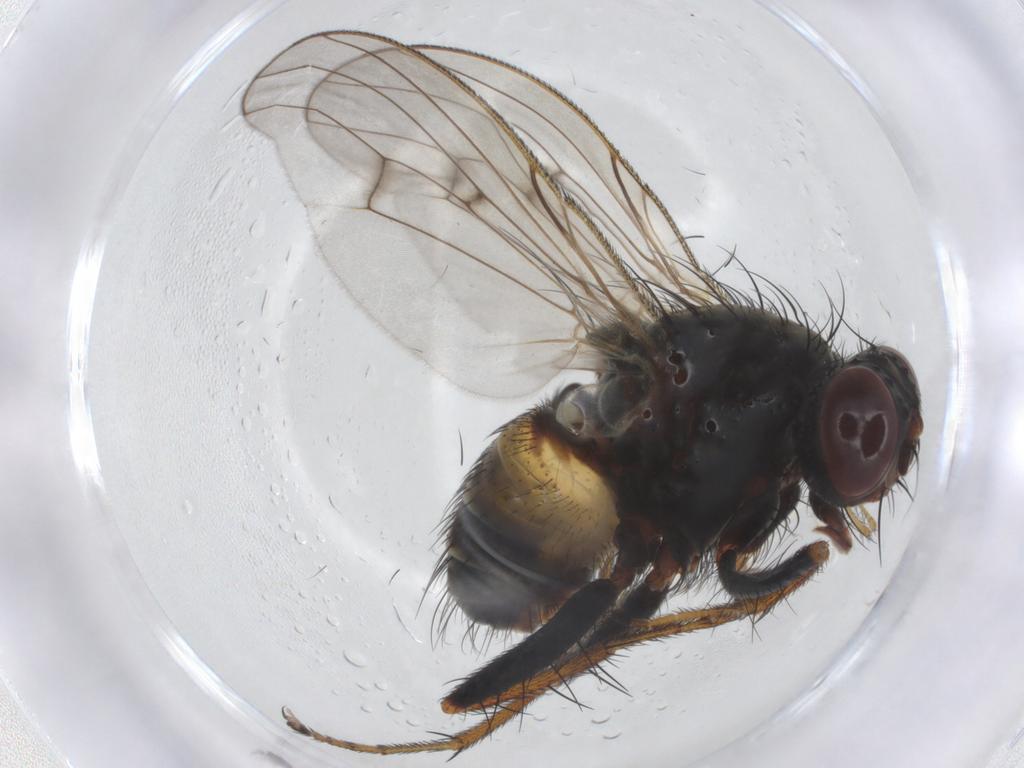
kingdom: Animalia
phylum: Arthropoda
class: Insecta
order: Diptera
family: Muscidae
